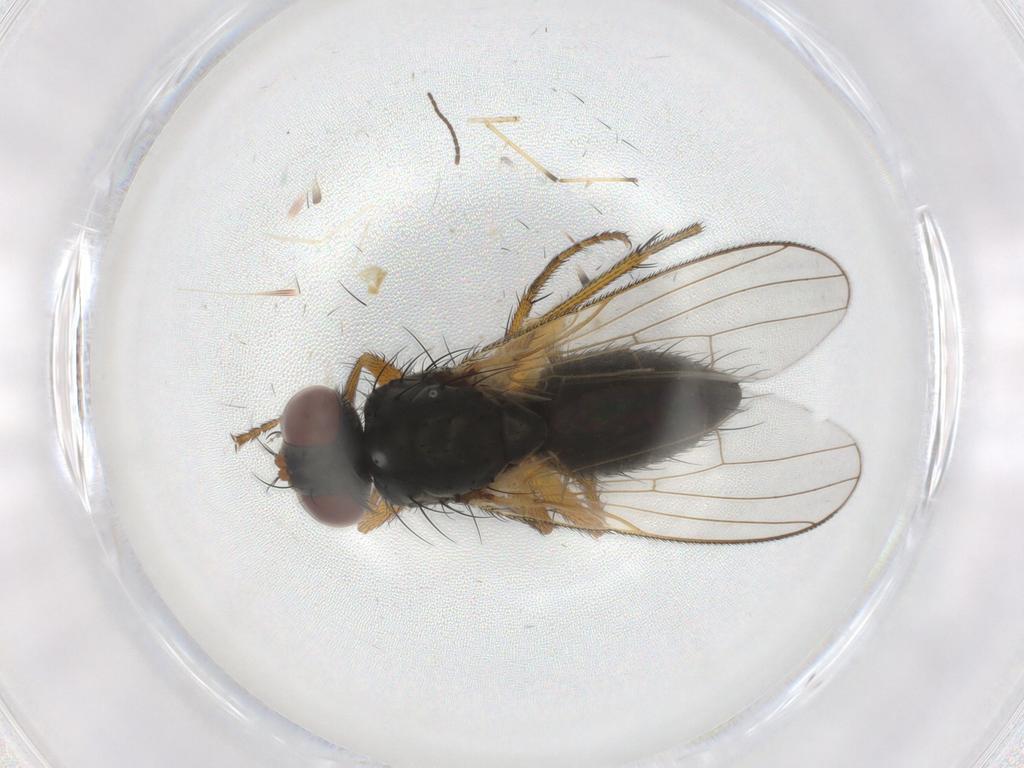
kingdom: Animalia
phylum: Arthropoda
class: Insecta
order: Diptera
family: Sciaridae
